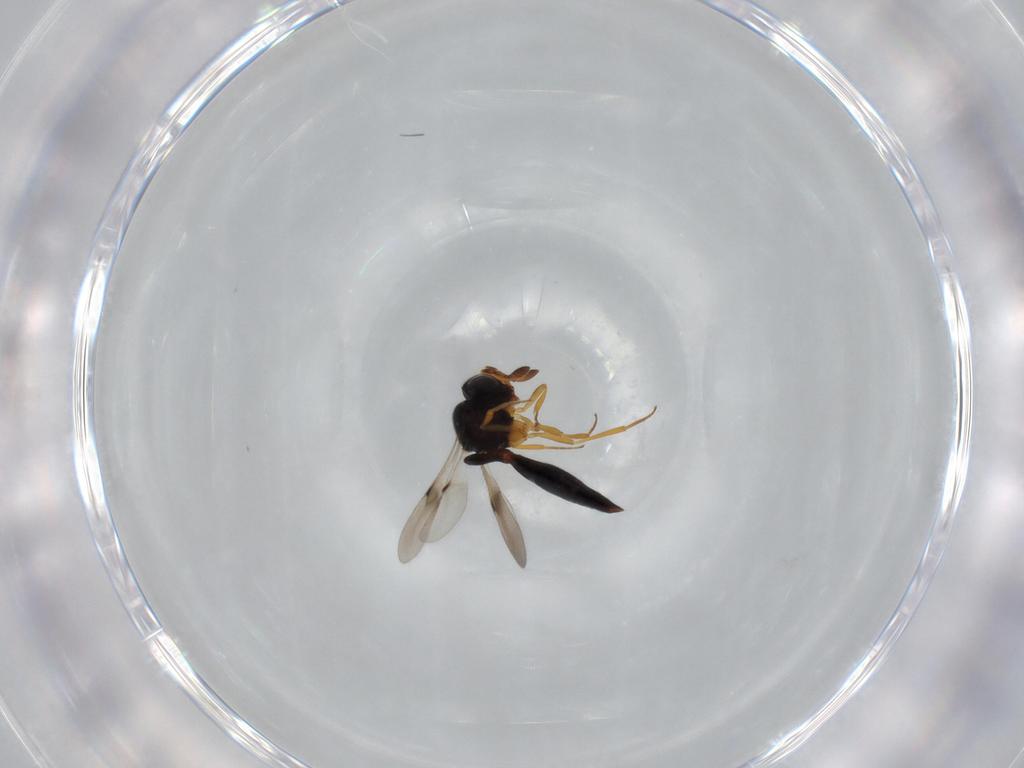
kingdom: Animalia
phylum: Arthropoda
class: Insecta
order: Hymenoptera
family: Scelionidae
